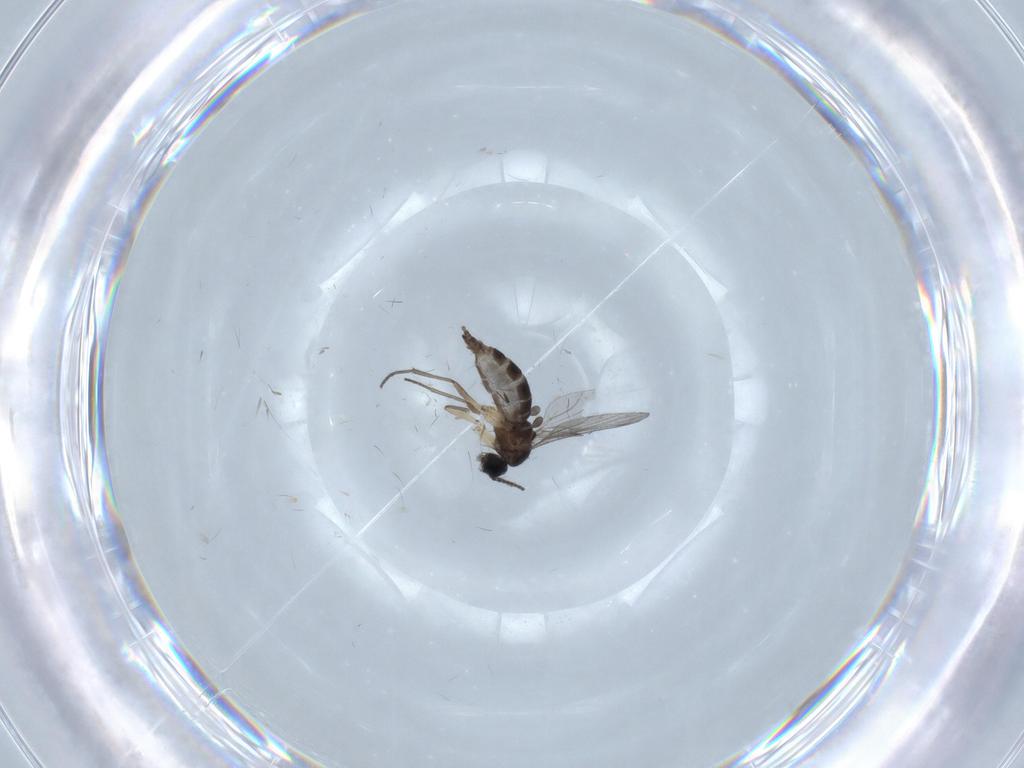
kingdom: Animalia
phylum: Arthropoda
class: Insecta
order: Diptera
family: Sciaridae
